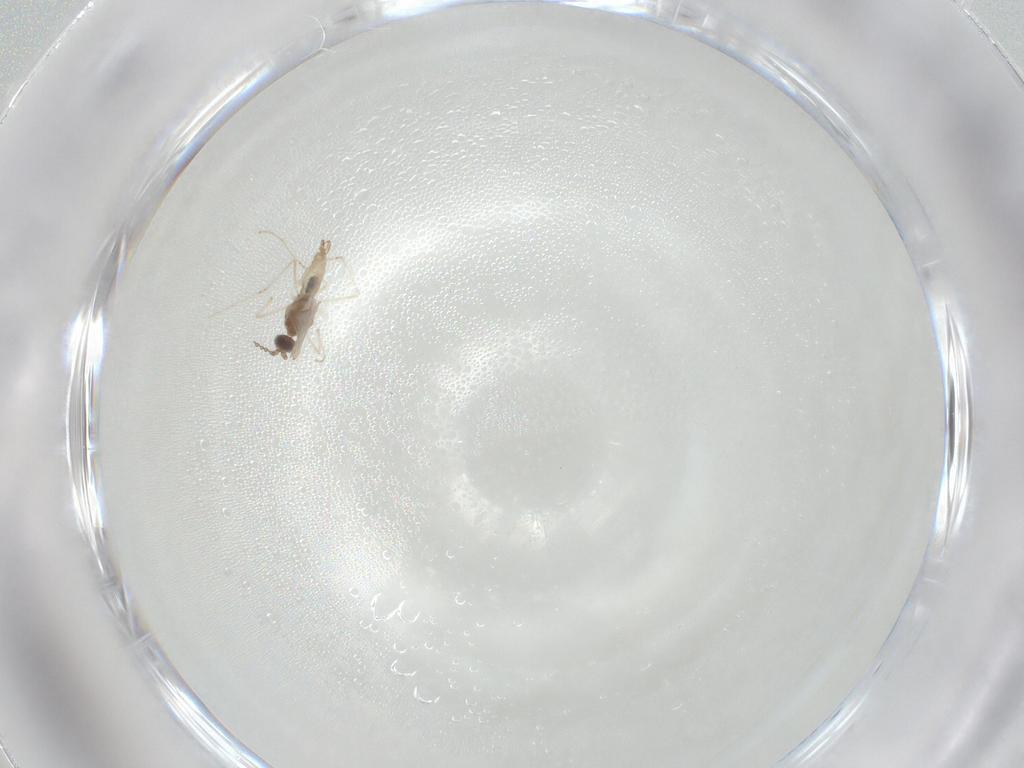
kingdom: Animalia
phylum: Arthropoda
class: Insecta
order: Diptera
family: Cecidomyiidae
